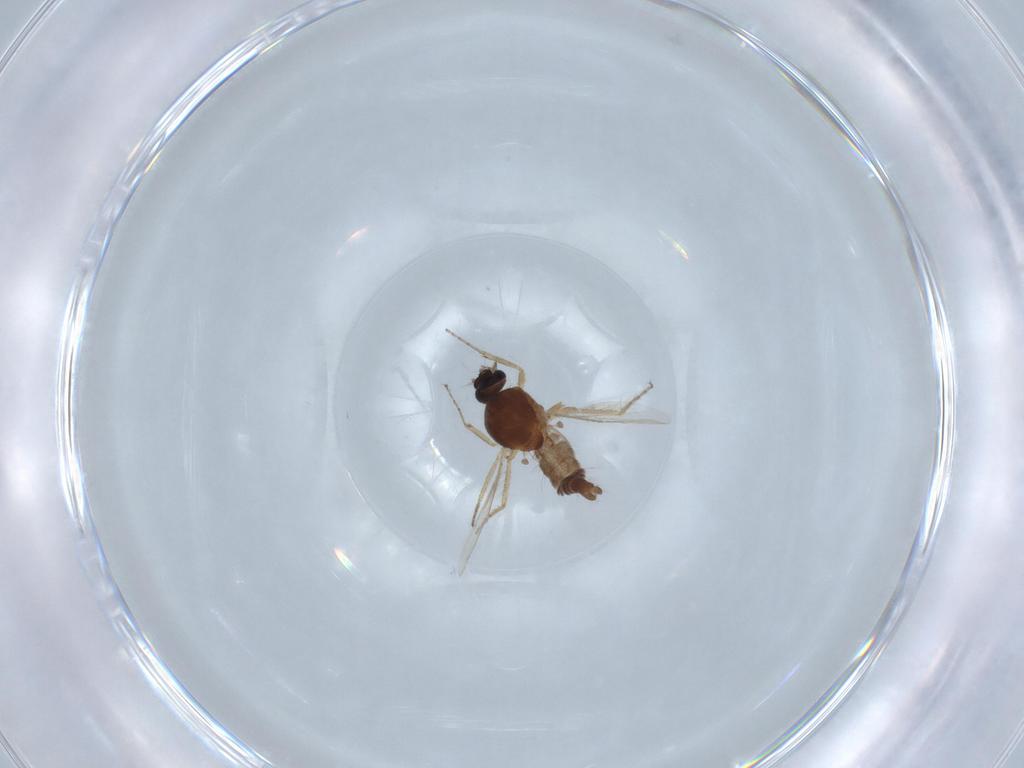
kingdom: Animalia
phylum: Arthropoda
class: Insecta
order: Diptera
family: Ceratopogonidae
